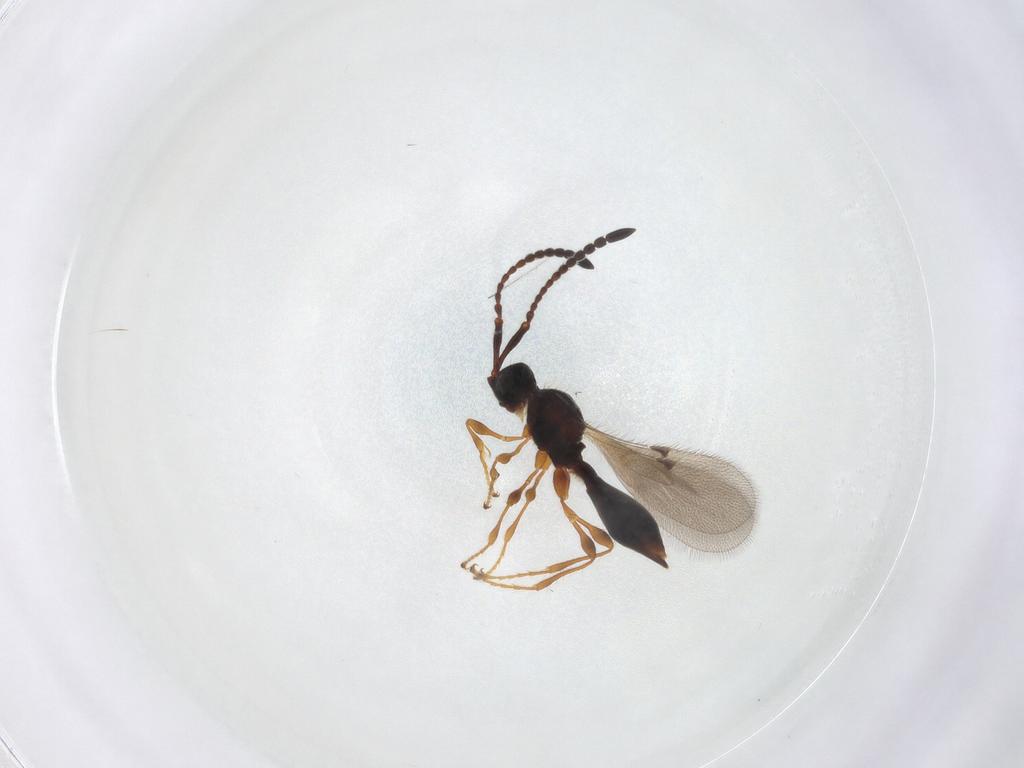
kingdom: Animalia
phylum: Arthropoda
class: Insecta
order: Hymenoptera
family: Diapriidae
